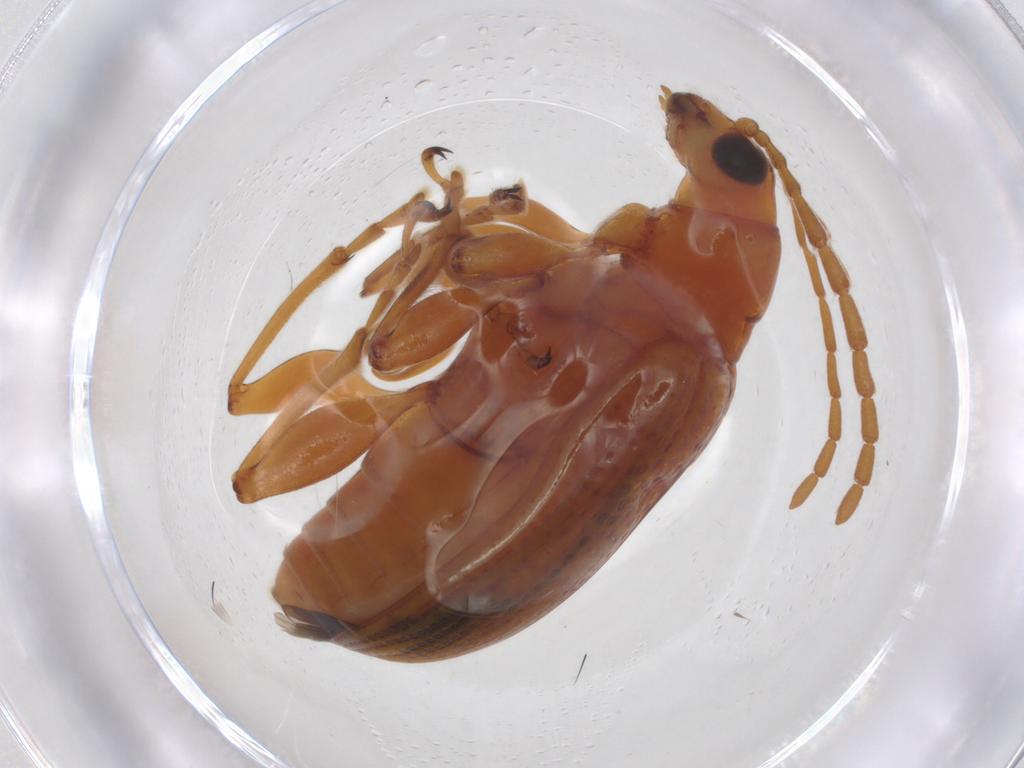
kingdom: Animalia
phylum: Arthropoda
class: Insecta
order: Coleoptera
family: Chrysomelidae
